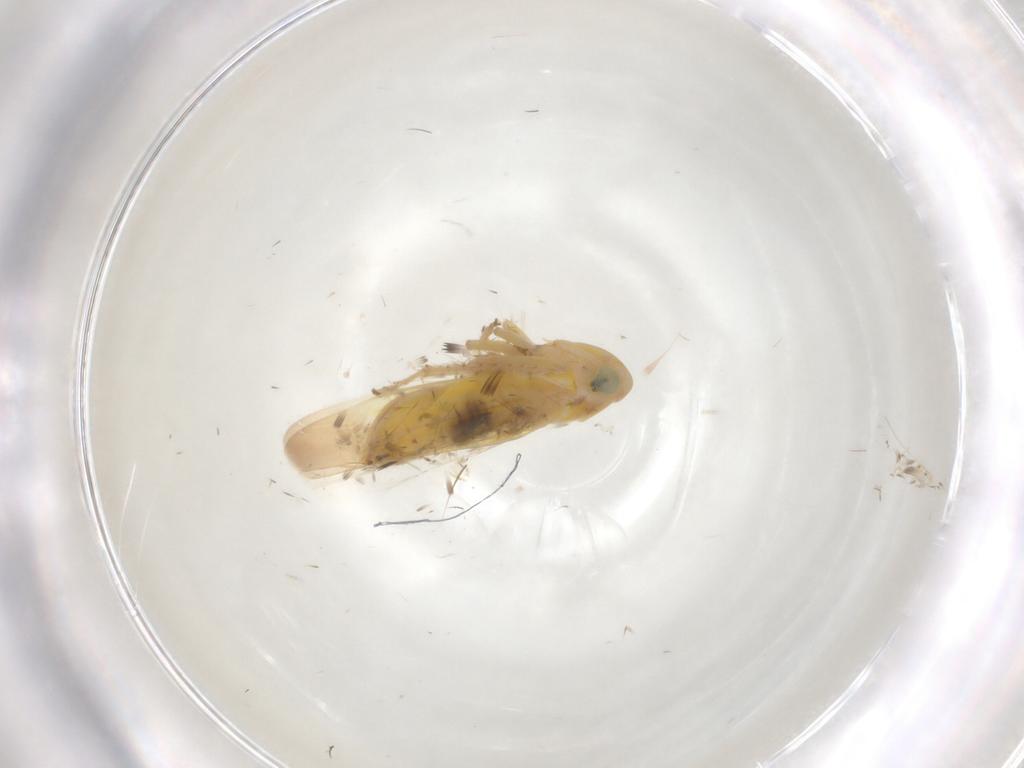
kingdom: Animalia
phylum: Arthropoda
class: Insecta
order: Hemiptera
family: Cicadellidae
